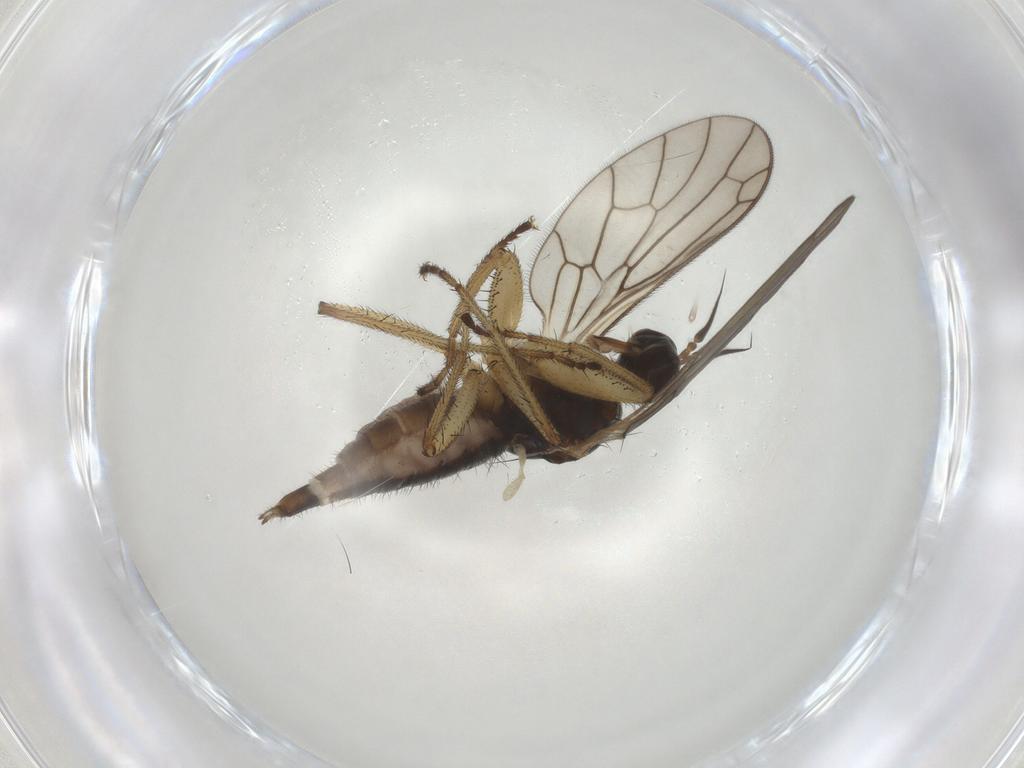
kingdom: Animalia
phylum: Arthropoda
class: Insecta
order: Diptera
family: Empididae
